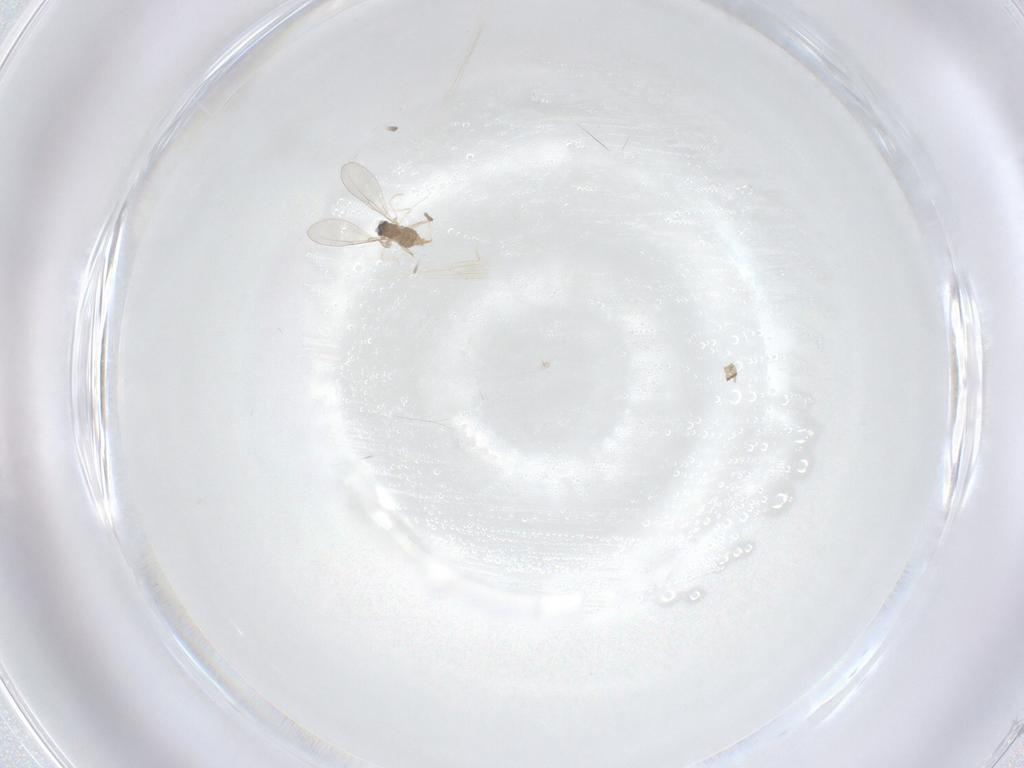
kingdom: Animalia
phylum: Arthropoda
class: Insecta
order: Diptera
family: Cecidomyiidae
